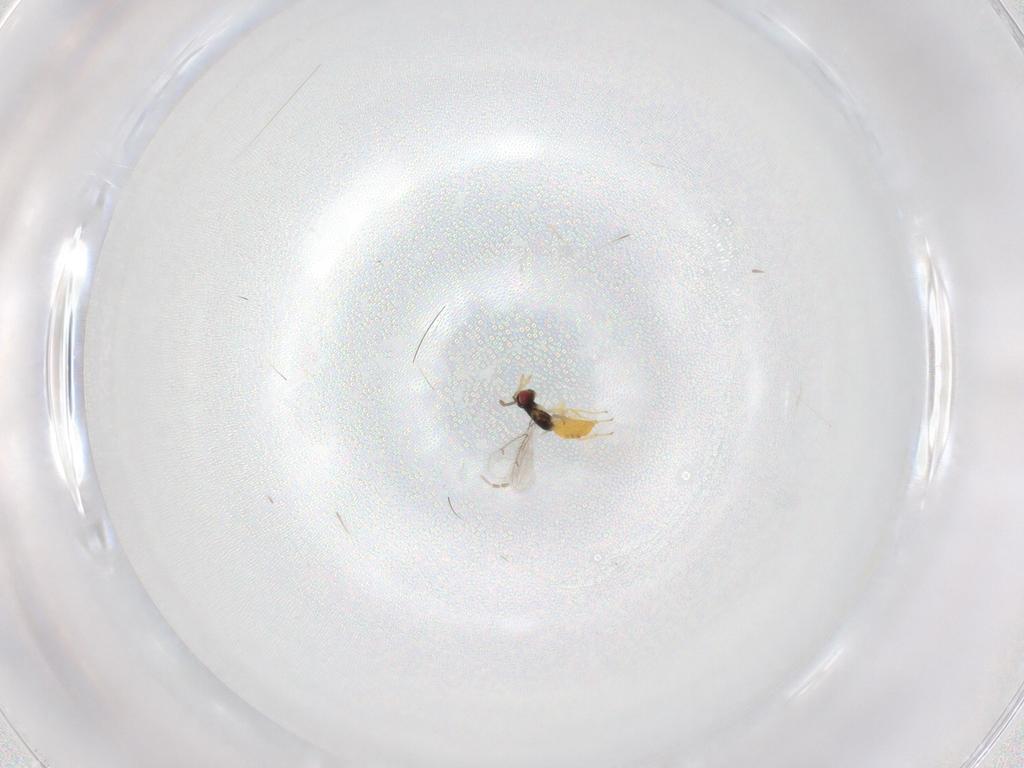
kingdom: Animalia
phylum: Arthropoda
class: Insecta
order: Hymenoptera
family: Eulophidae
